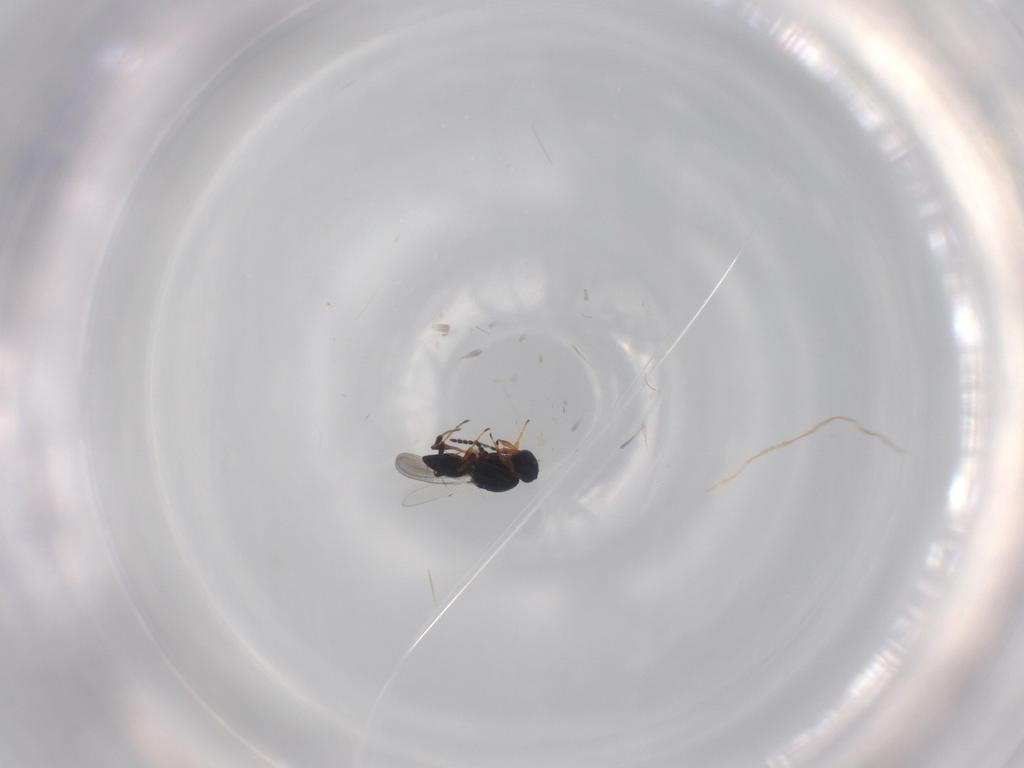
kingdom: Animalia
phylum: Arthropoda
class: Insecta
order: Hymenoptera
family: Platygastridae
